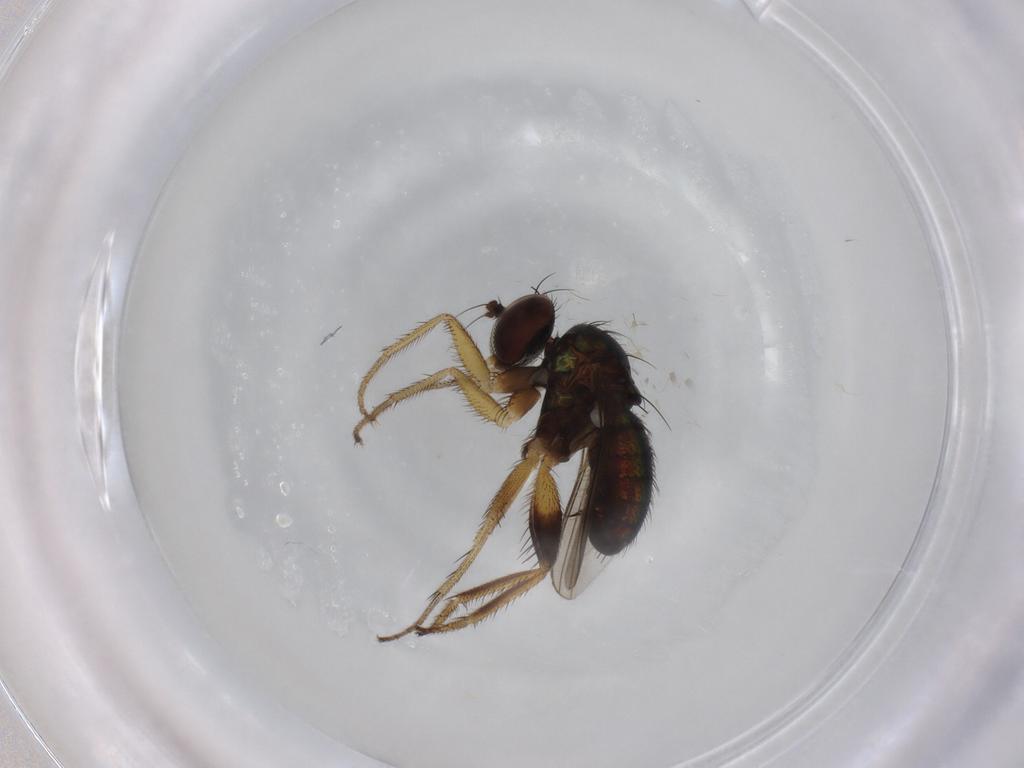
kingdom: Animalia
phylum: Arthropoda
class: Insecta
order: Diptera
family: Dolichopodidae
